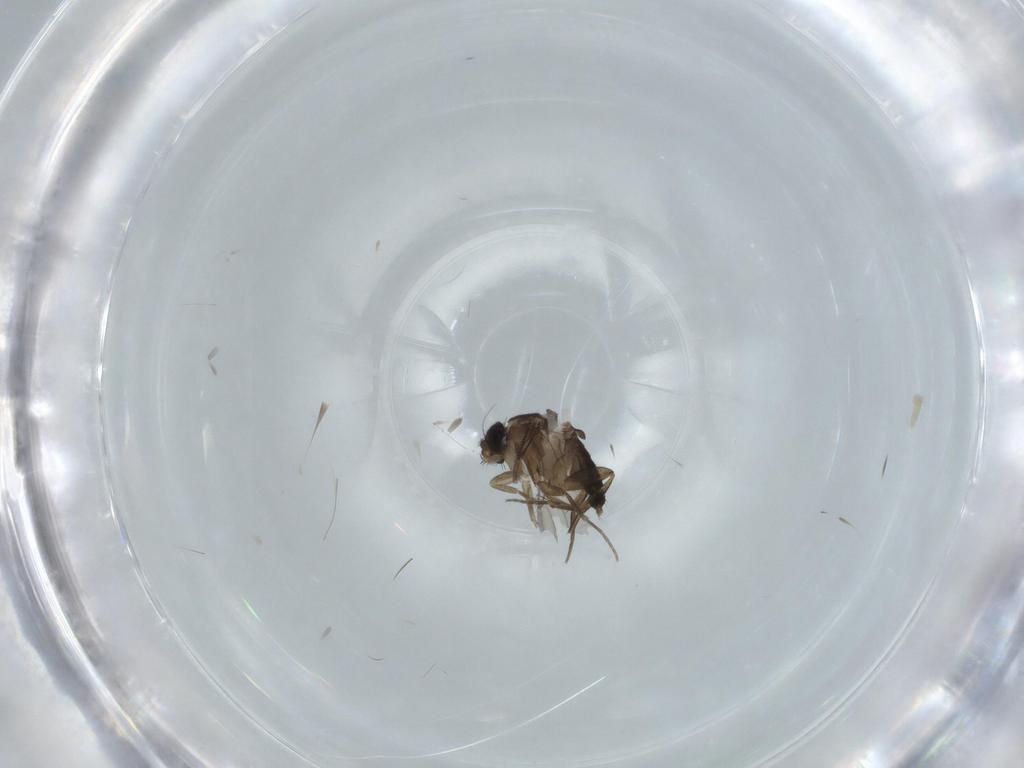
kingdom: Animalia
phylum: Arthropoda
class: Insecta
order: Diptera
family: Phoridae
